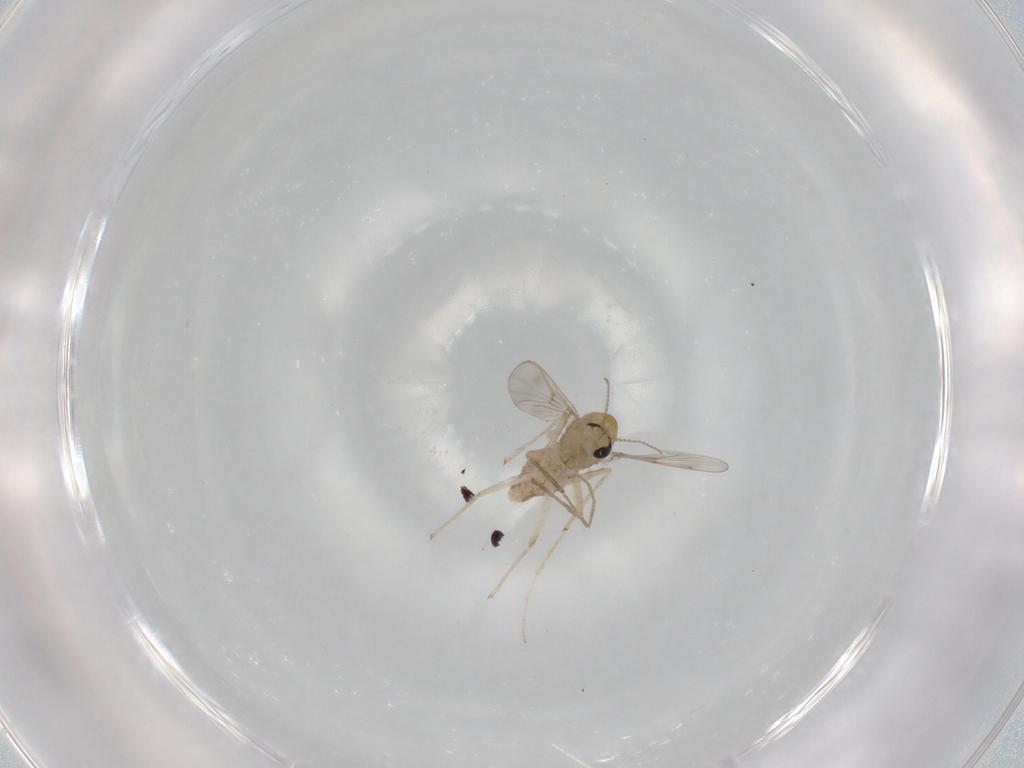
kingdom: Animalia
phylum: Arthropoda
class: Insecta
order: Diptera
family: Chironomidae
